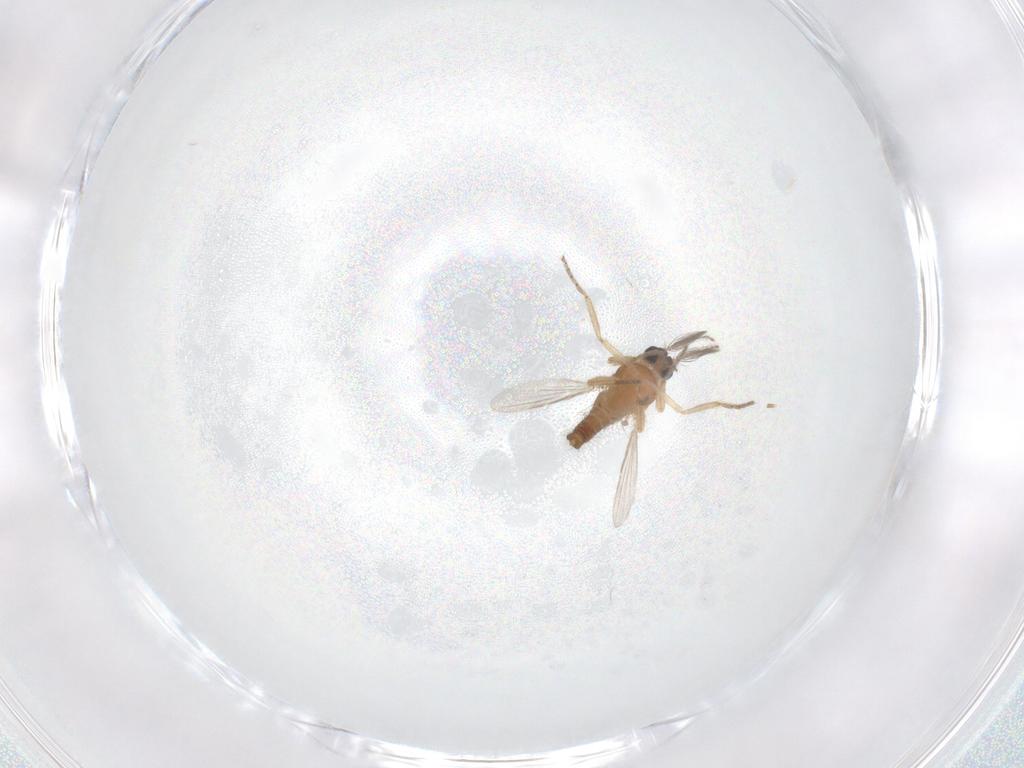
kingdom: Animalia
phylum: Arthropoda
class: Insecta
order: Diptera
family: Ceratopogonidae
